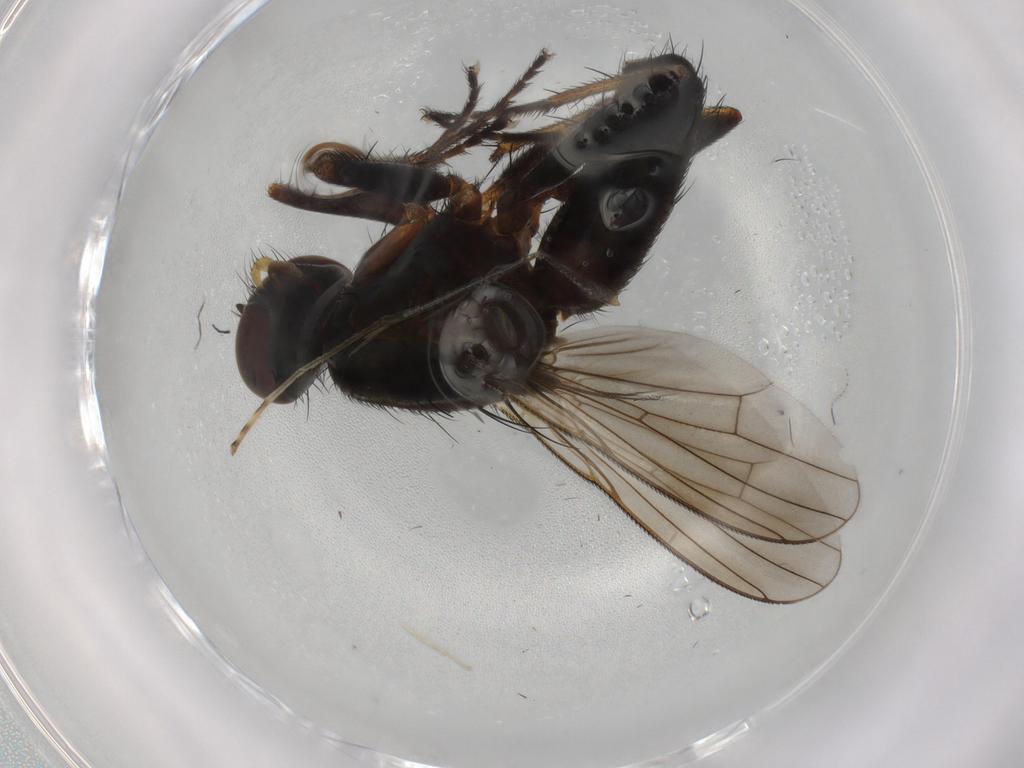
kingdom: Animalia
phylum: Arthropoda
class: Insecta
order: Diptera
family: Muscidae
